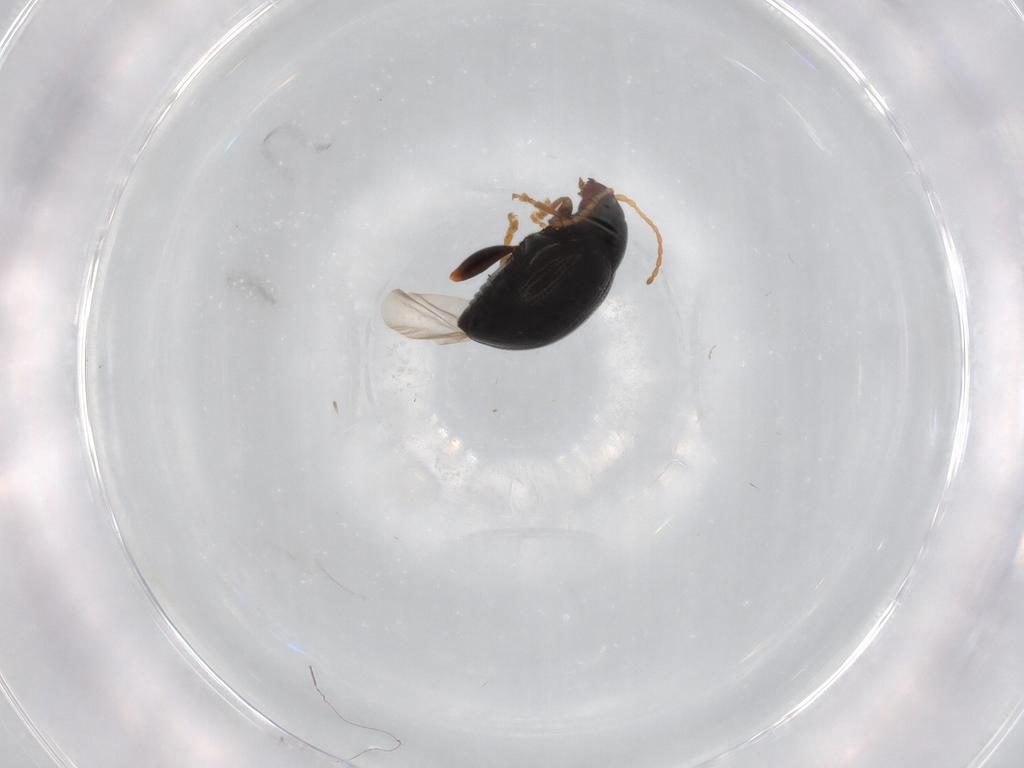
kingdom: Animalia
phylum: Arthropoda
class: Insecta
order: Coleoptera
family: Chrysomelidae
